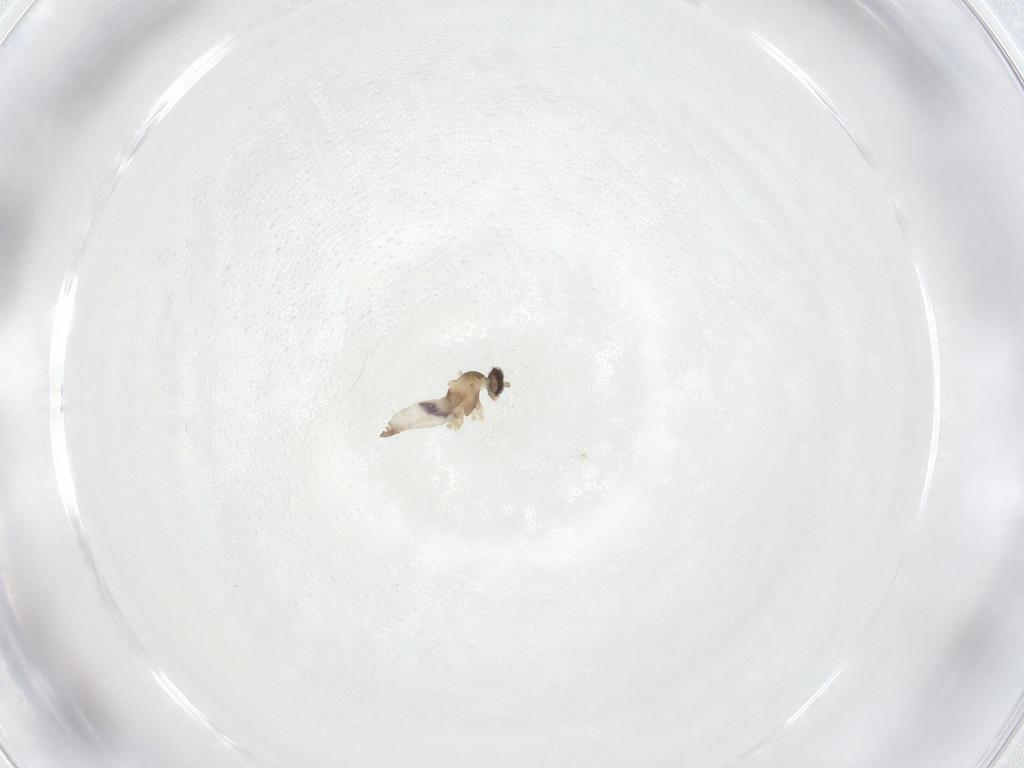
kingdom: Animalia
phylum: Arthropoda
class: Insecta
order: Diptera
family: Cecidomyiidae
